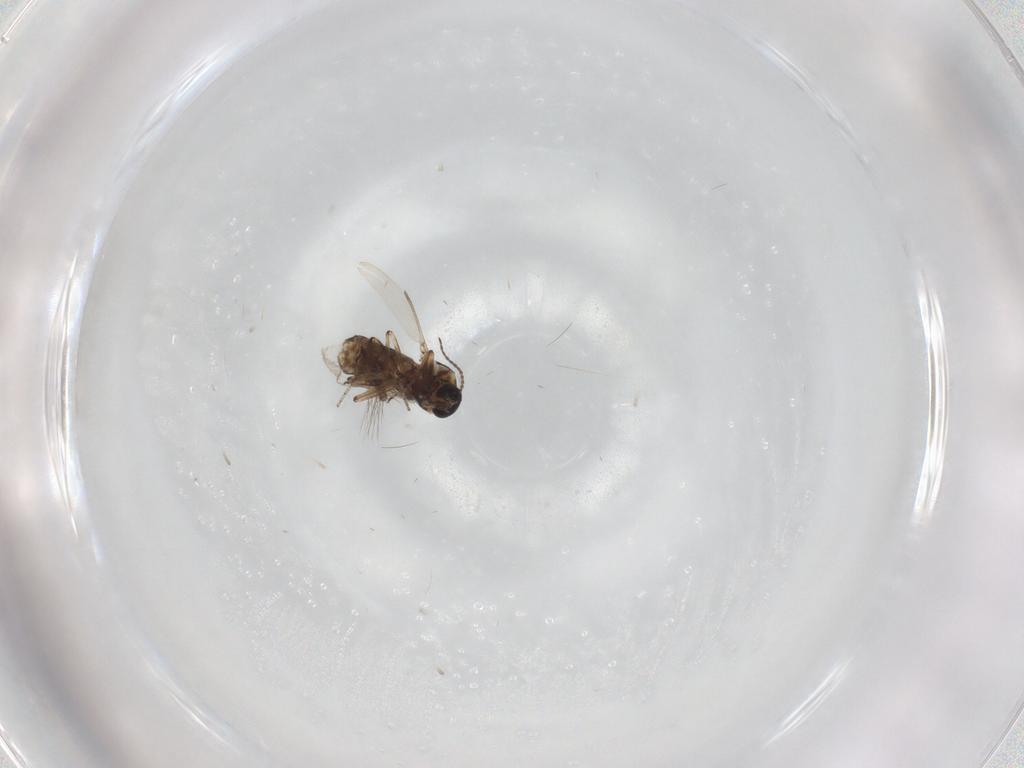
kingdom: Animalia
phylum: Arthropoda
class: Insecta
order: Diptera
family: Ceratopogonidae
